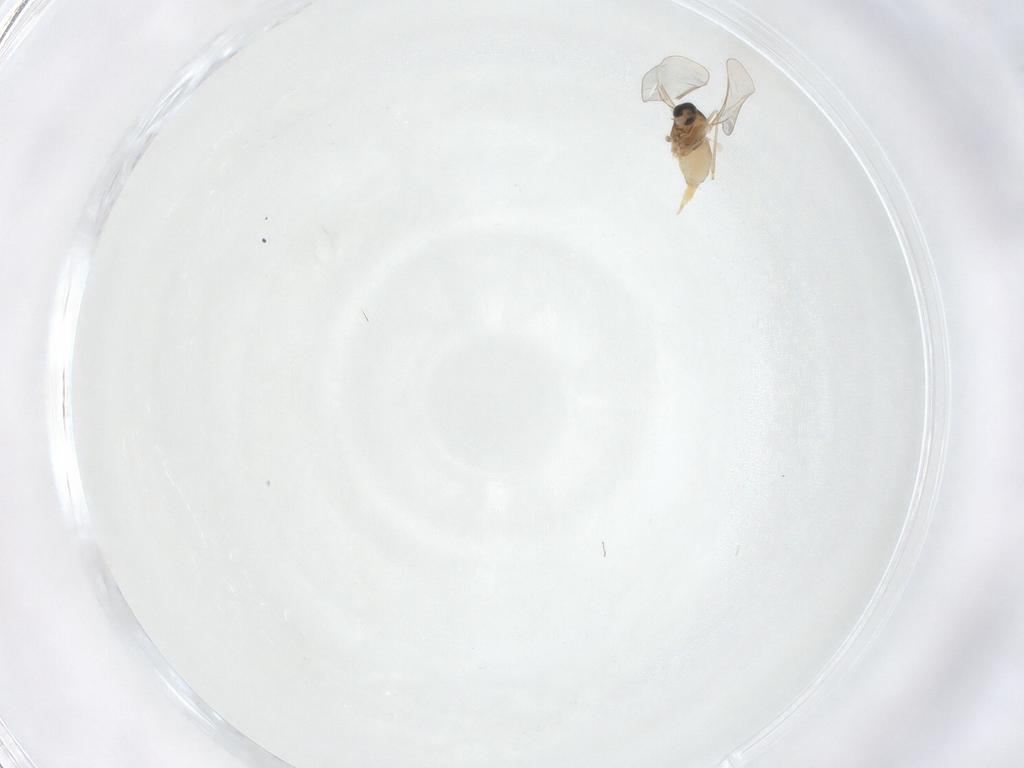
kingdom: Animalia
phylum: Arthropoda
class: Insecta
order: Diptera
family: Cecidomyiidae
